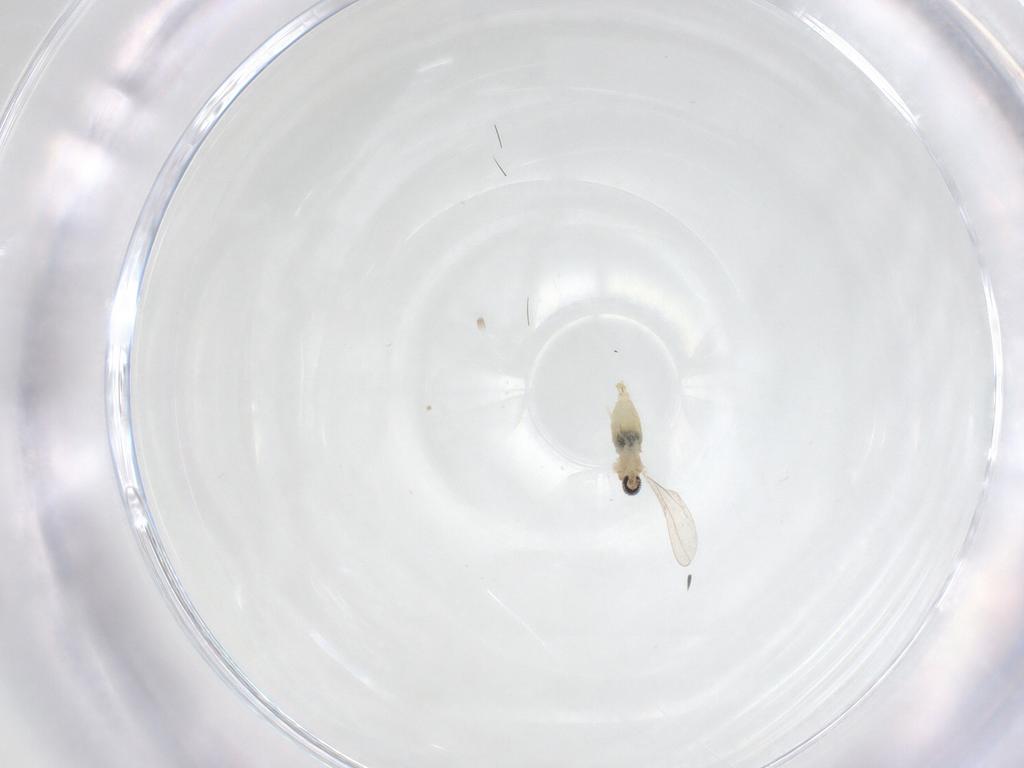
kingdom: Animalia
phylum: Arthropoda
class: Insecta
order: Diptera
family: Cecidomyiidae
